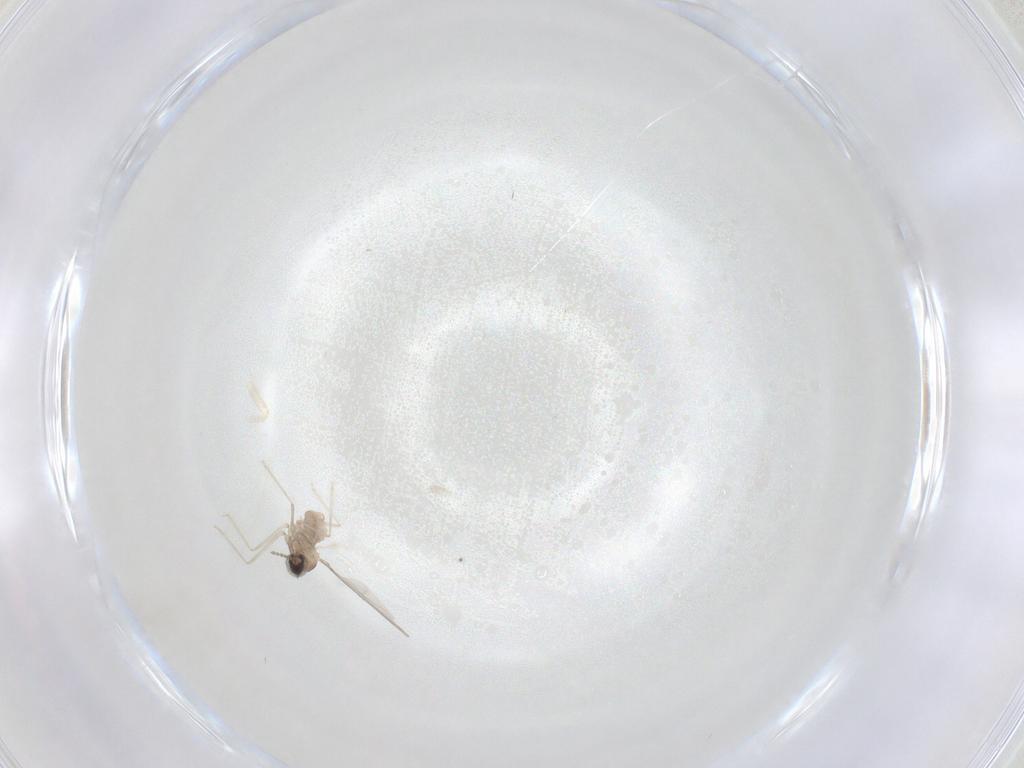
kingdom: Animalia
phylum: Arthropoda
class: Insecta
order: Diptera
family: Cecidomyiidae
